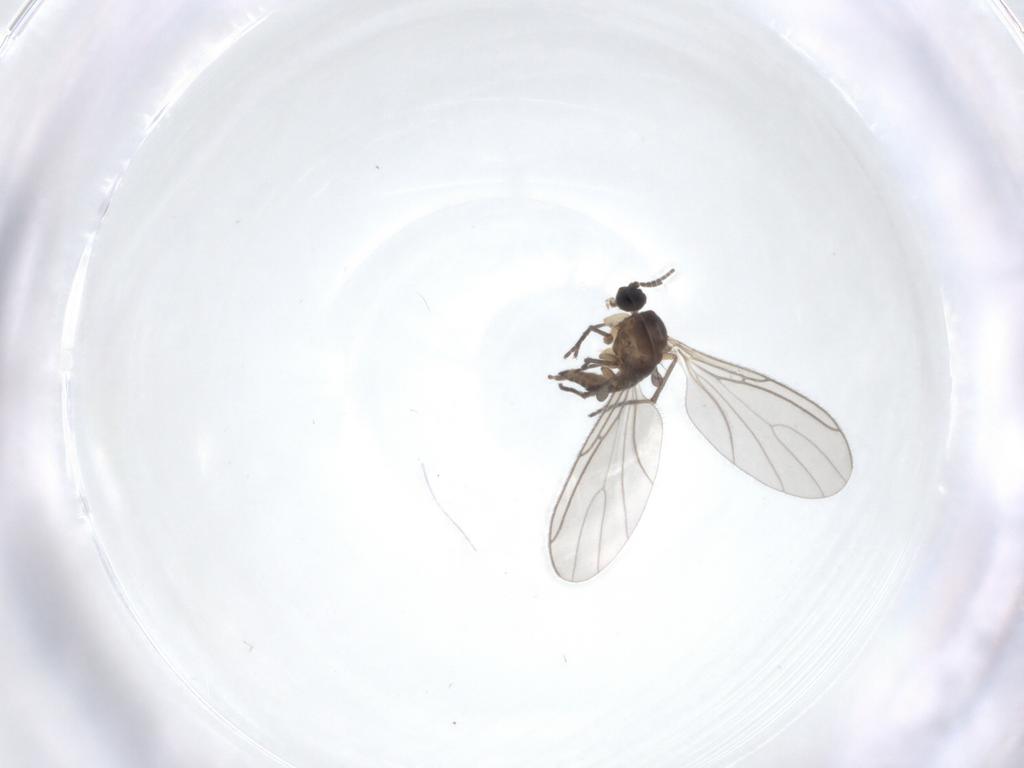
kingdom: Animalia
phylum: Arthropoda
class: Insecta
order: Diptera
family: Sciaridae
